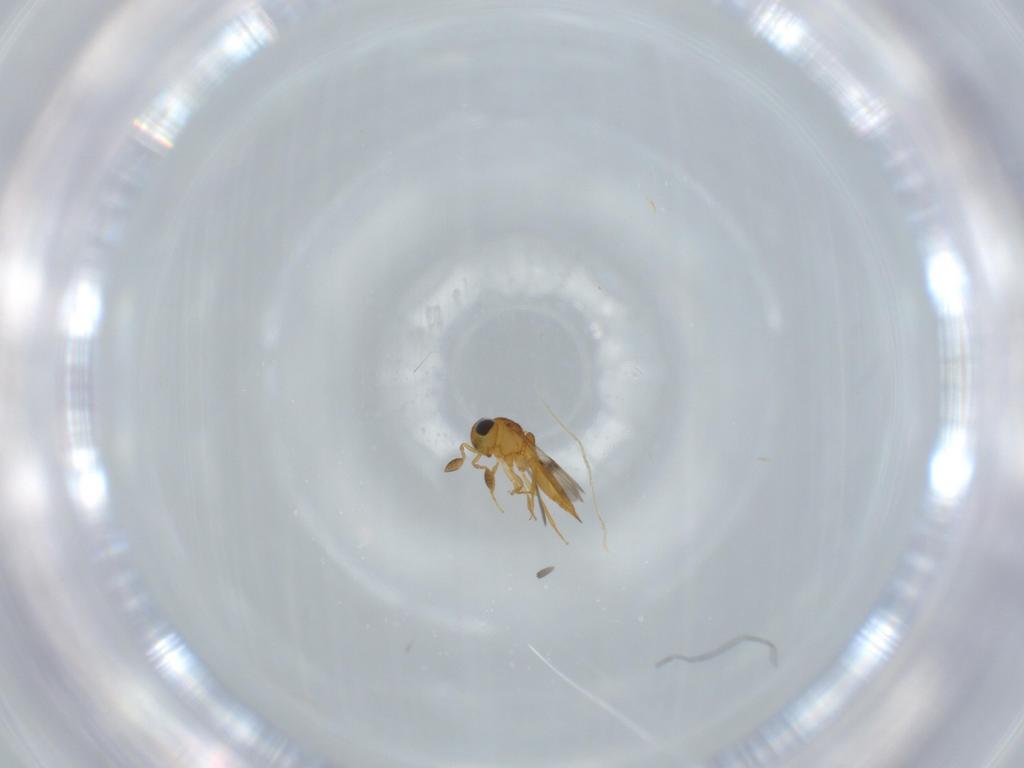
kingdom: Animalia
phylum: Arthropoda
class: Insecta
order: Hymenoptera
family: Scelionidae
